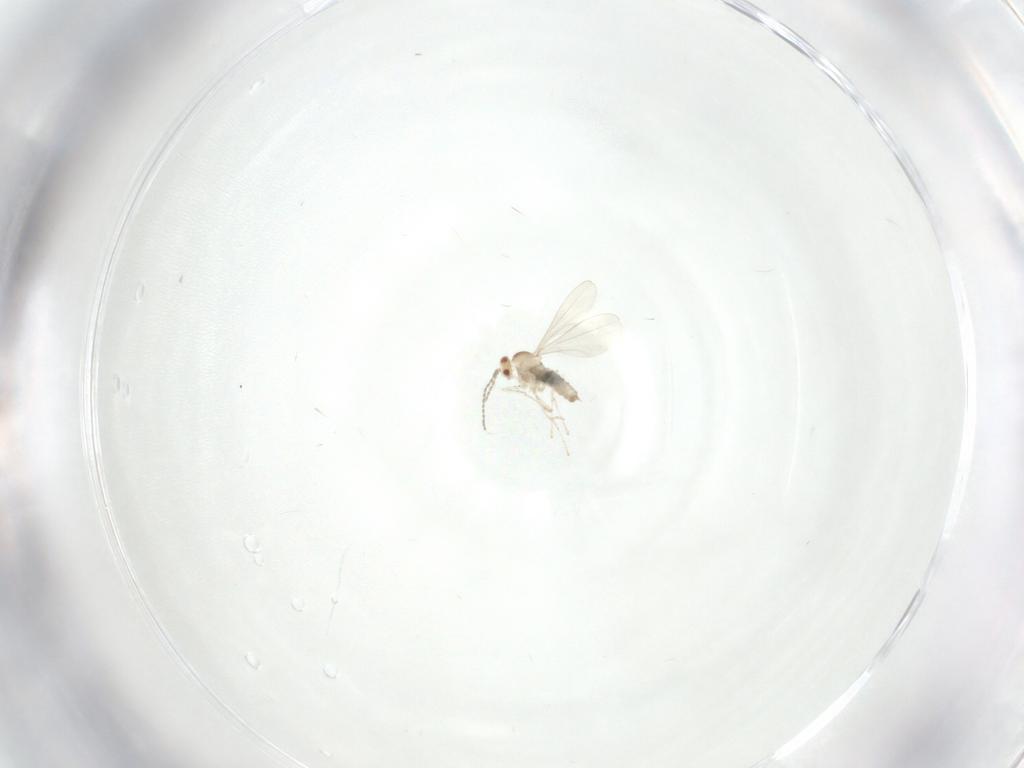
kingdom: Animalia
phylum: Arthropoda
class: Insecta
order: Diptera
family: Cecidomyiidae
